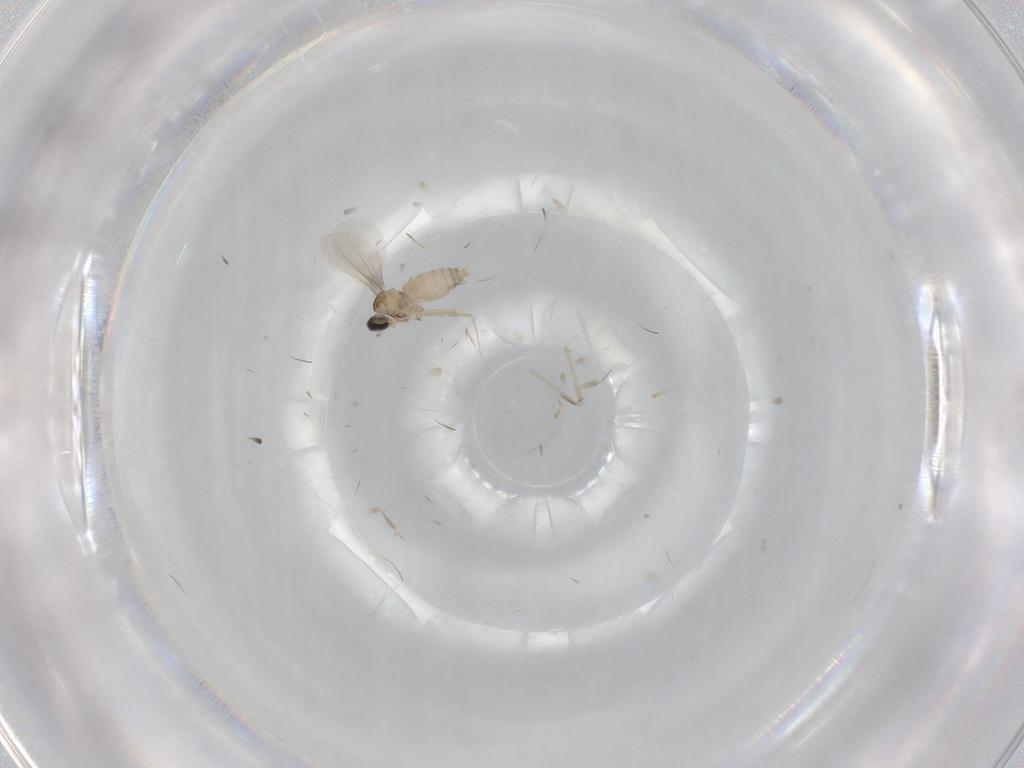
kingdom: Animalia
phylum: Arthropoda
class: Insecta
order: Diptera
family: Cecidomyiidae
